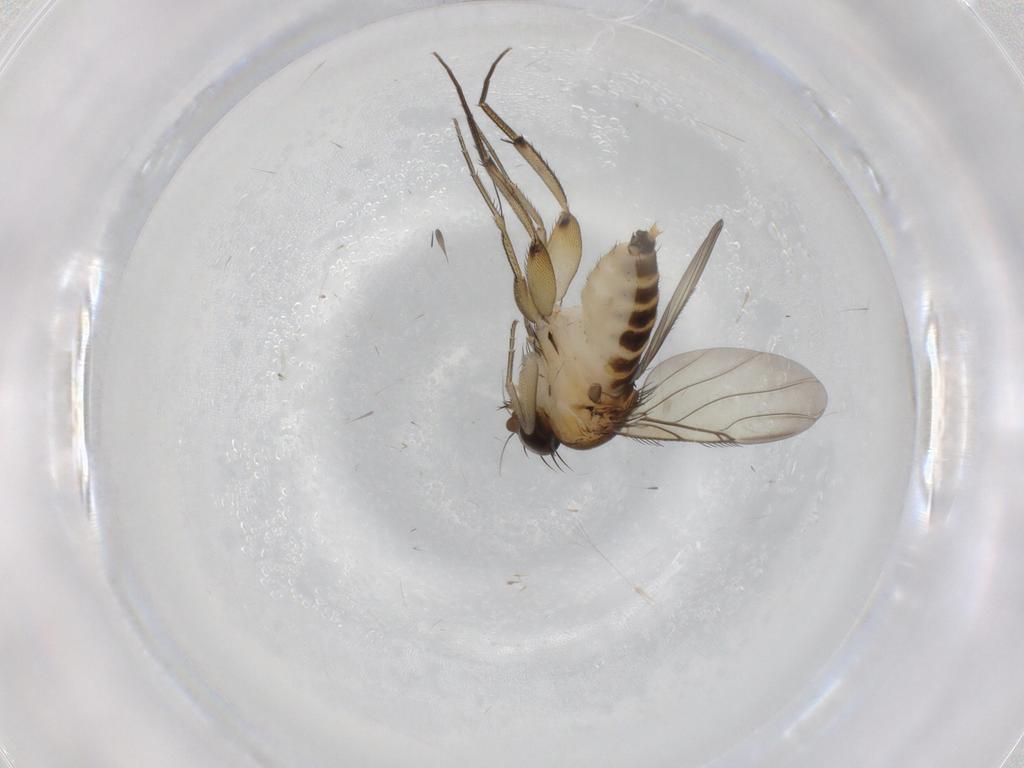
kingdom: Animalia
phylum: Arthropoda
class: Insecta
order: Diptera
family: Phoridae
